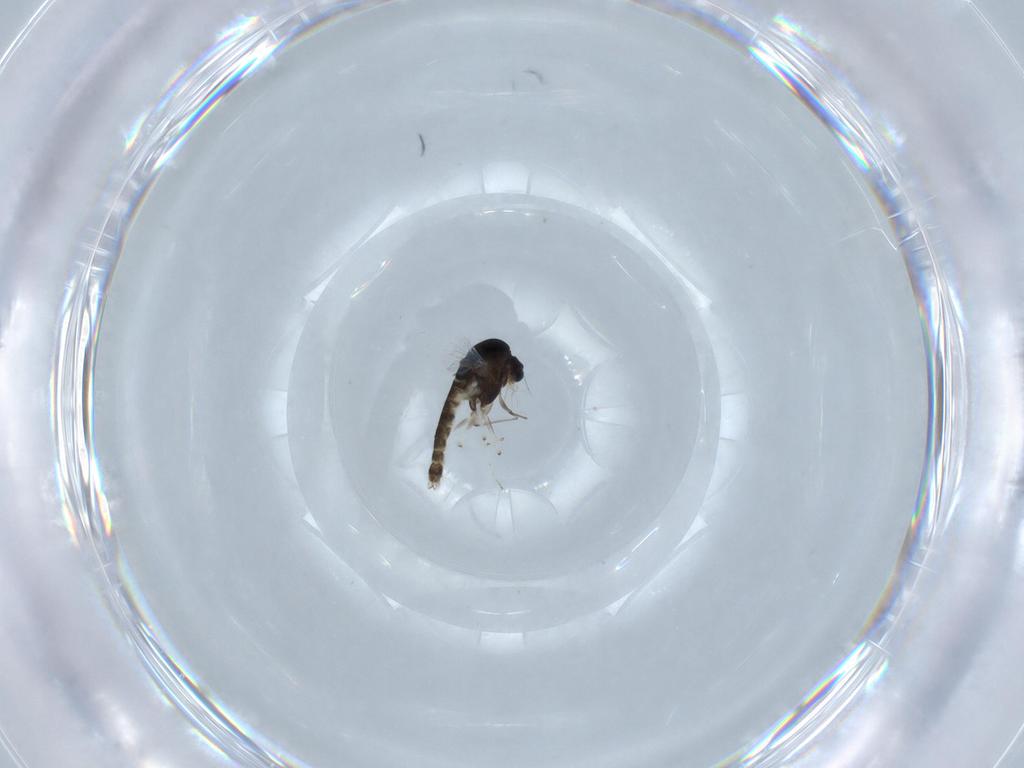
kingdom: Animalia
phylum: Arthropoda
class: Insecta
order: Diptera
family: Chironomidae
